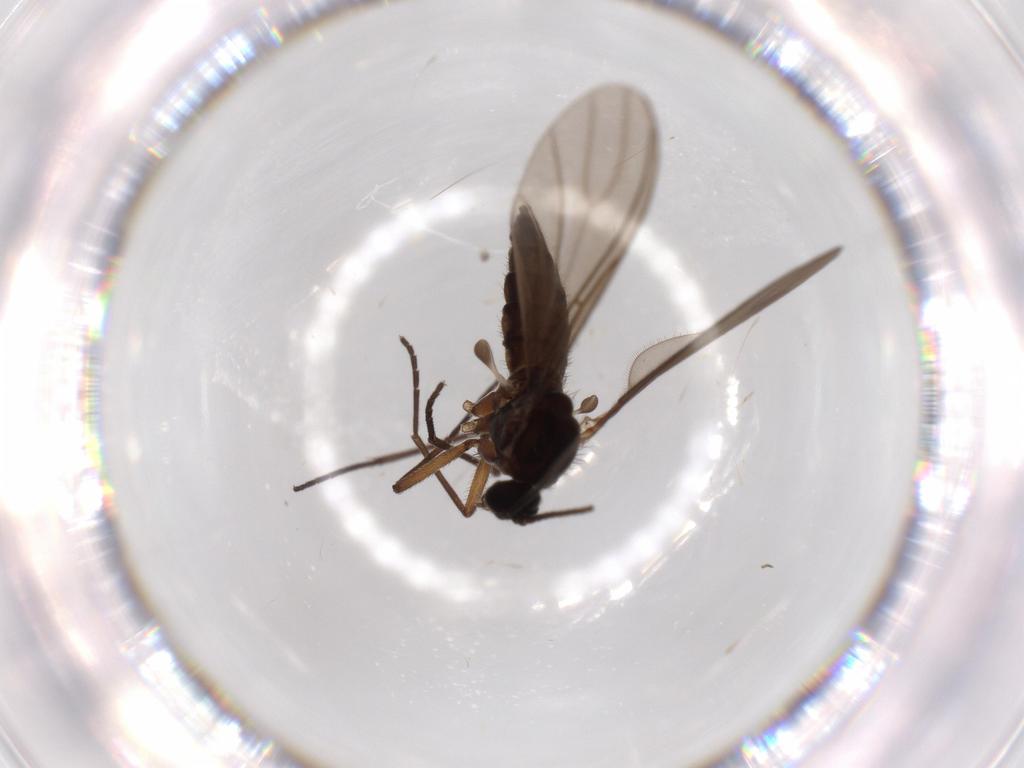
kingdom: Animalia
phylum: Arthropoda
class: Insecta
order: Diptera
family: Sciaridae
